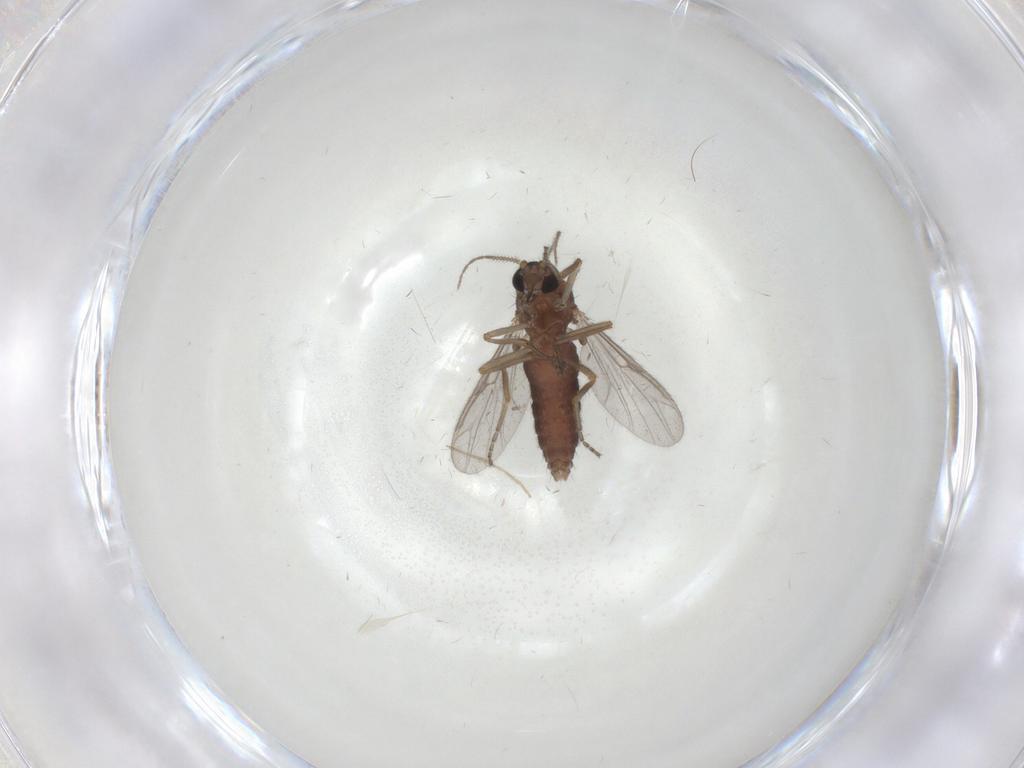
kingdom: Animalia
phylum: Arthropoda
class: Insecta
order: Diptera
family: Ceratopogonidae
